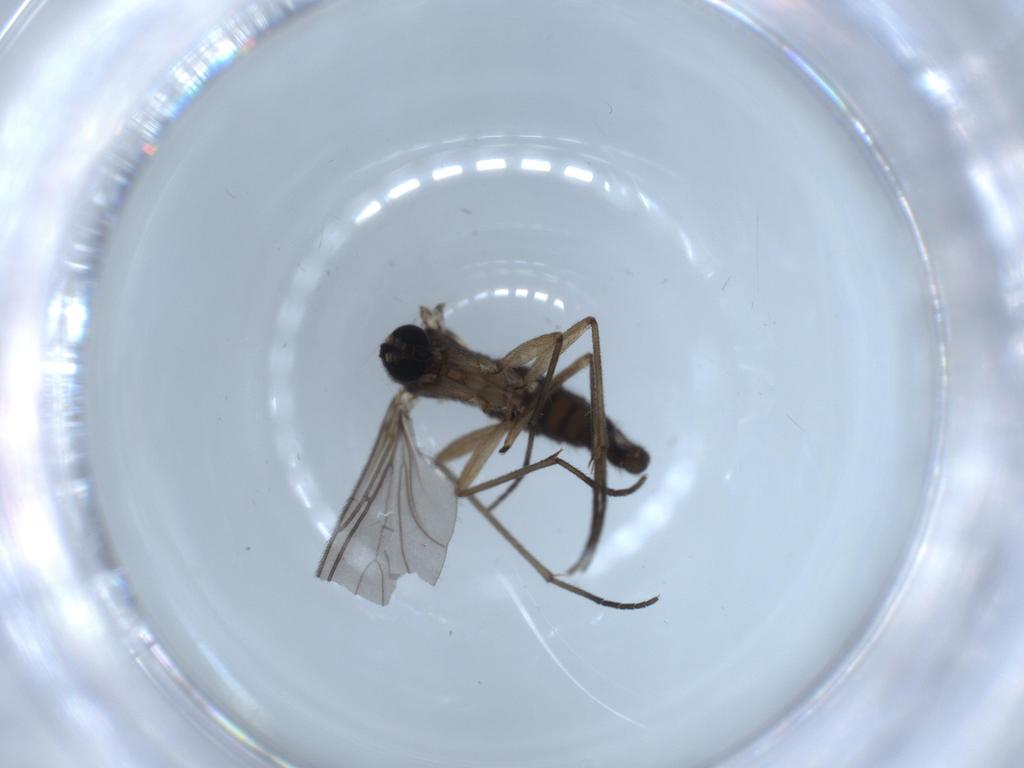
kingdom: Animalia
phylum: Arthropoda
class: Insecta
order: Diptera
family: Sciaridae
